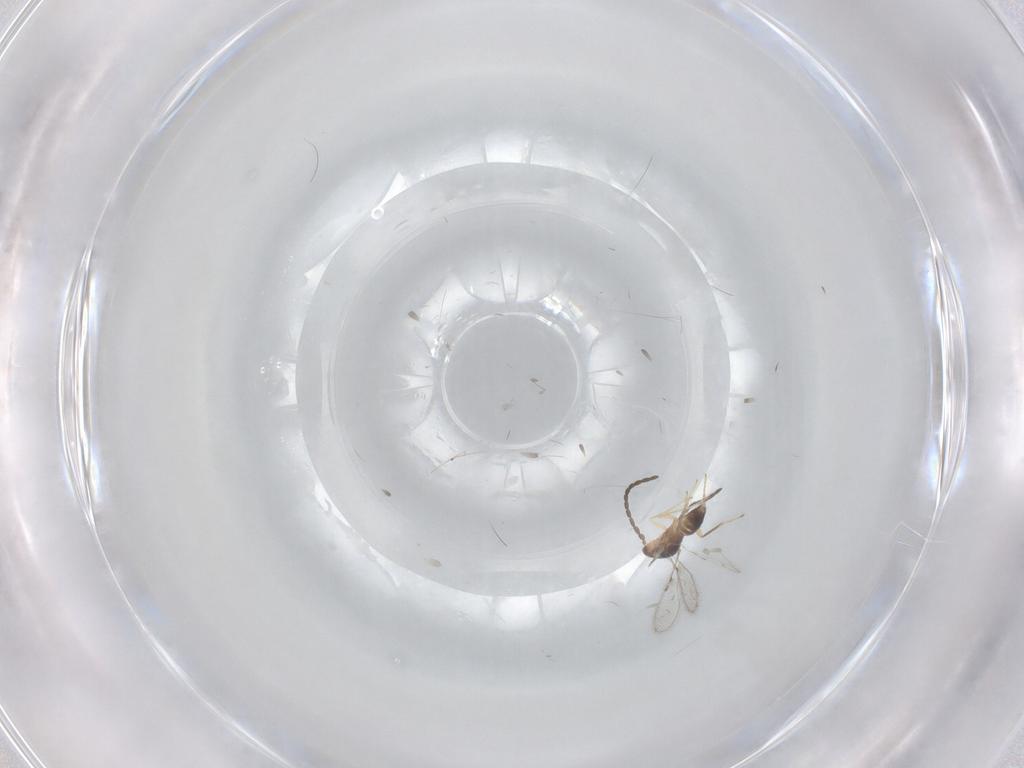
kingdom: Animalia
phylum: Arthropoda
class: Insecta
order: Hymenoptera
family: Mymaridae
